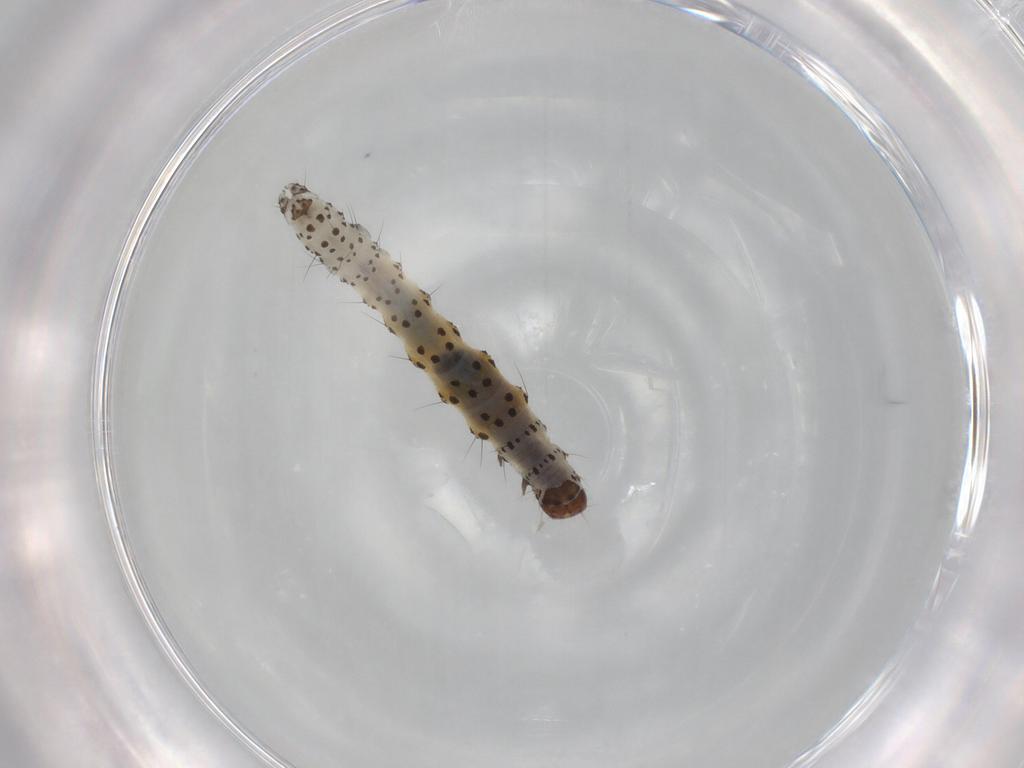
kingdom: Animalia
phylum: Arthropoda
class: Insecta
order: Lepidoptera
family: Noctuidae
